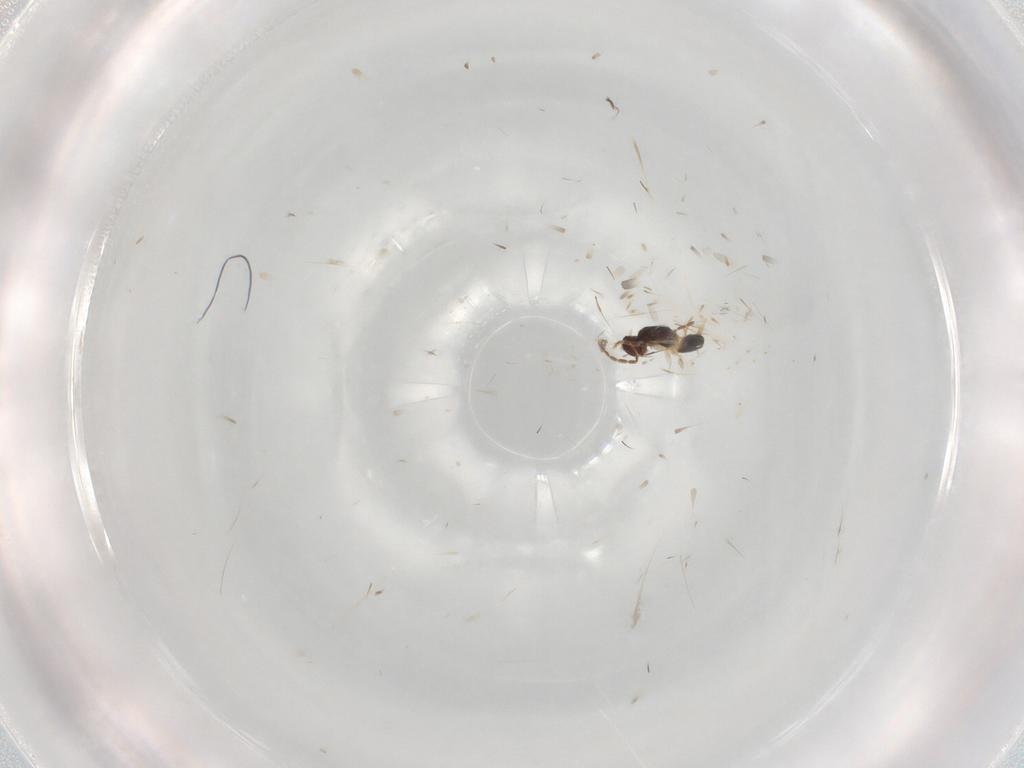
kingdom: Animalia
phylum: Arthropoda
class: Insecta
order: Hymenoptera
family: Mymaridae
